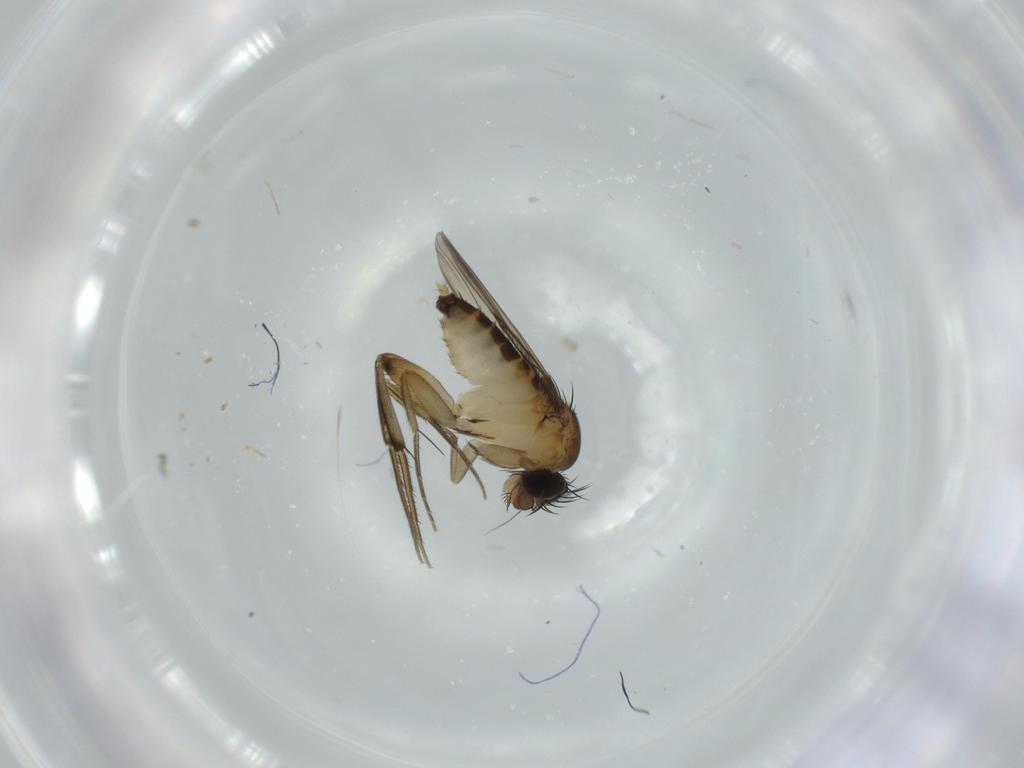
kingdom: Animalia
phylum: Arthropoda
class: Insecta
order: Diptera
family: Phoridae
